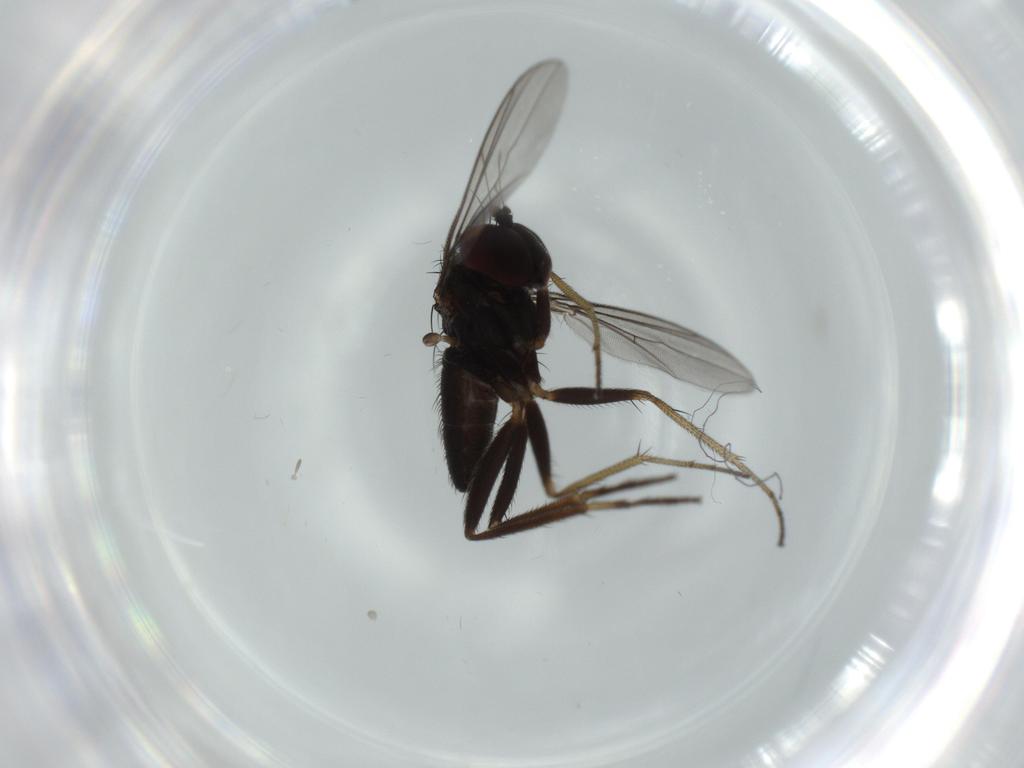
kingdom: Animalia
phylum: Arthropoda
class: Insecta
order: Diptera
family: Dolichopodidae
